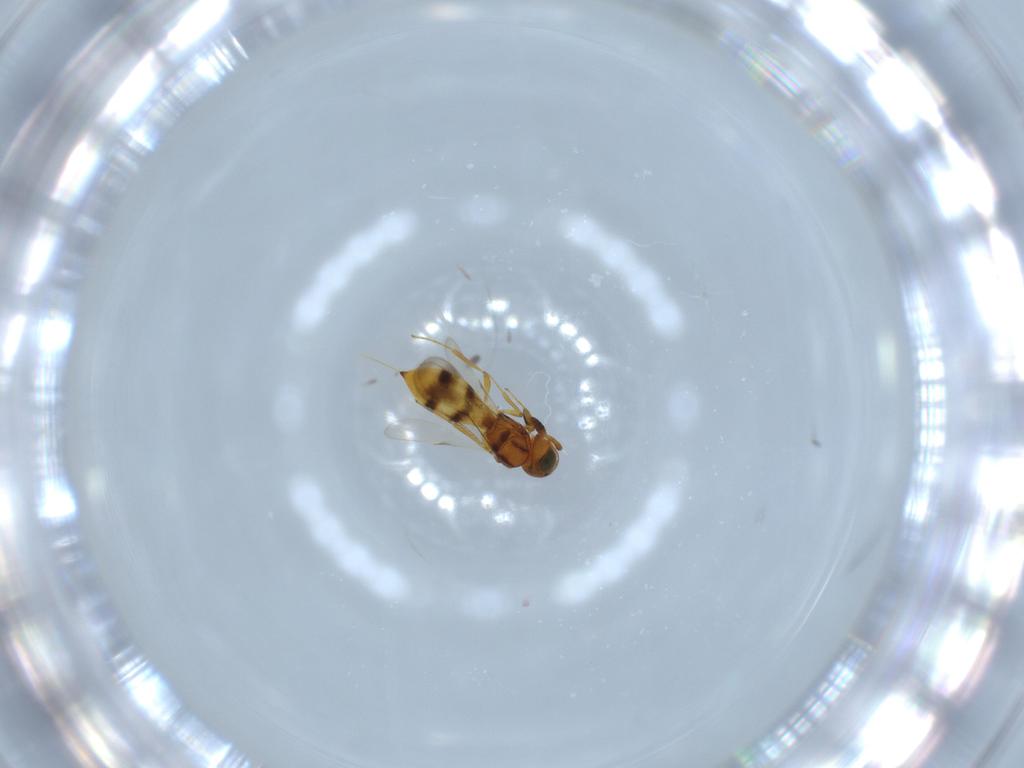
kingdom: Animalia
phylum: Arthropoda
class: Insecta
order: Hymenoptera
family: Scelionidae
